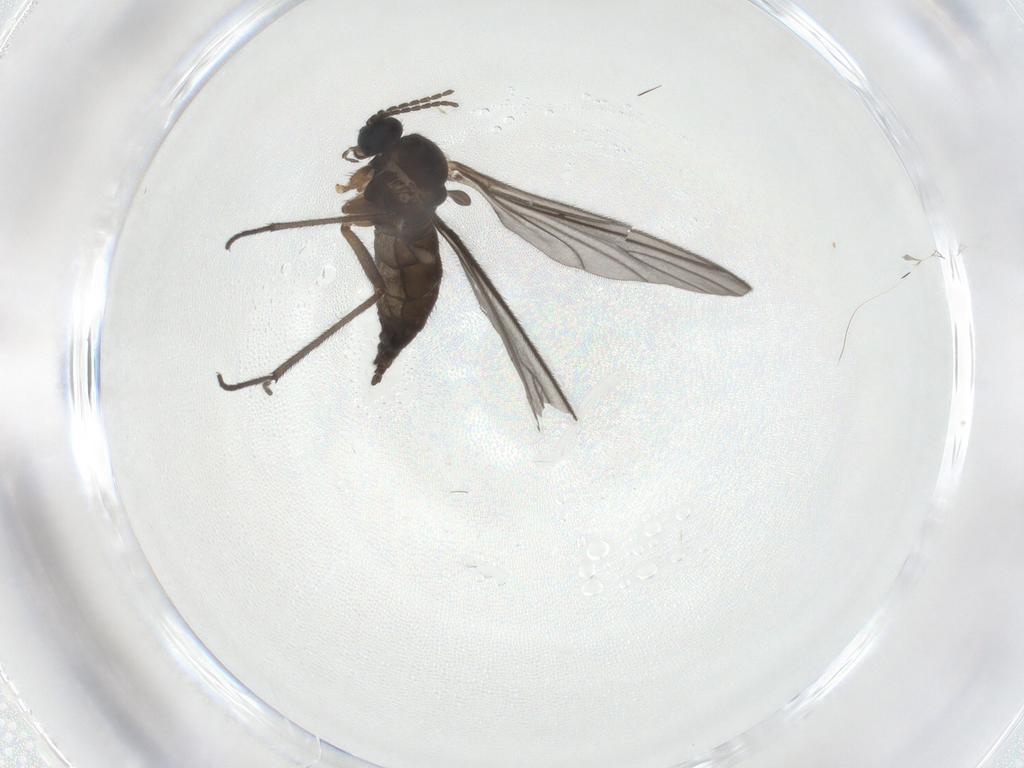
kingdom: Animalia
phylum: Arthropoda
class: Insecta
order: Diptera
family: Sciaridae
